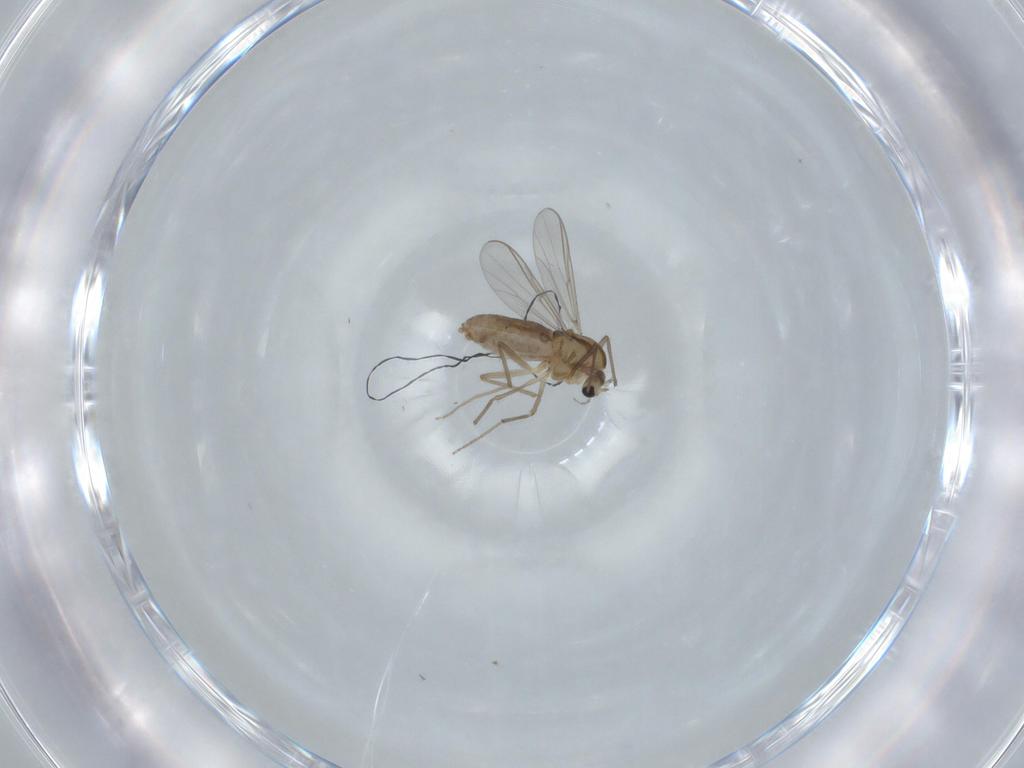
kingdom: Animalia
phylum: Arthropoda
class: Insecta
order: Diptera
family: Chironomidae
